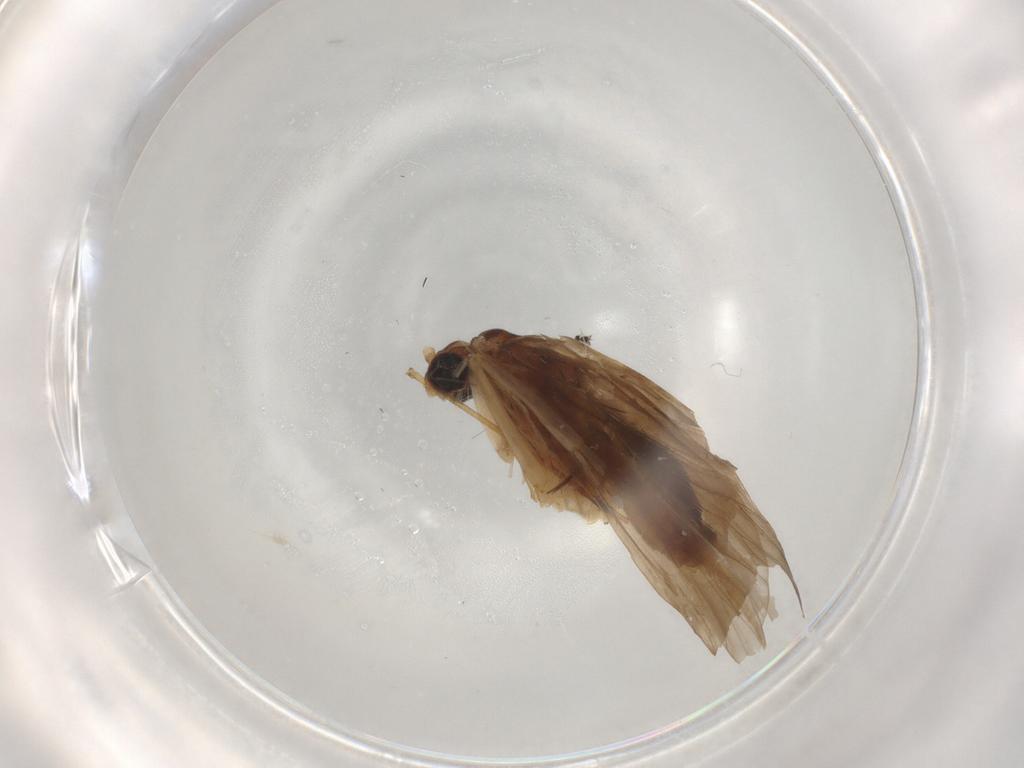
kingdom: Animalia
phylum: Arthropoda
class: Insecta
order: Trichoptera
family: Ecnomidae
